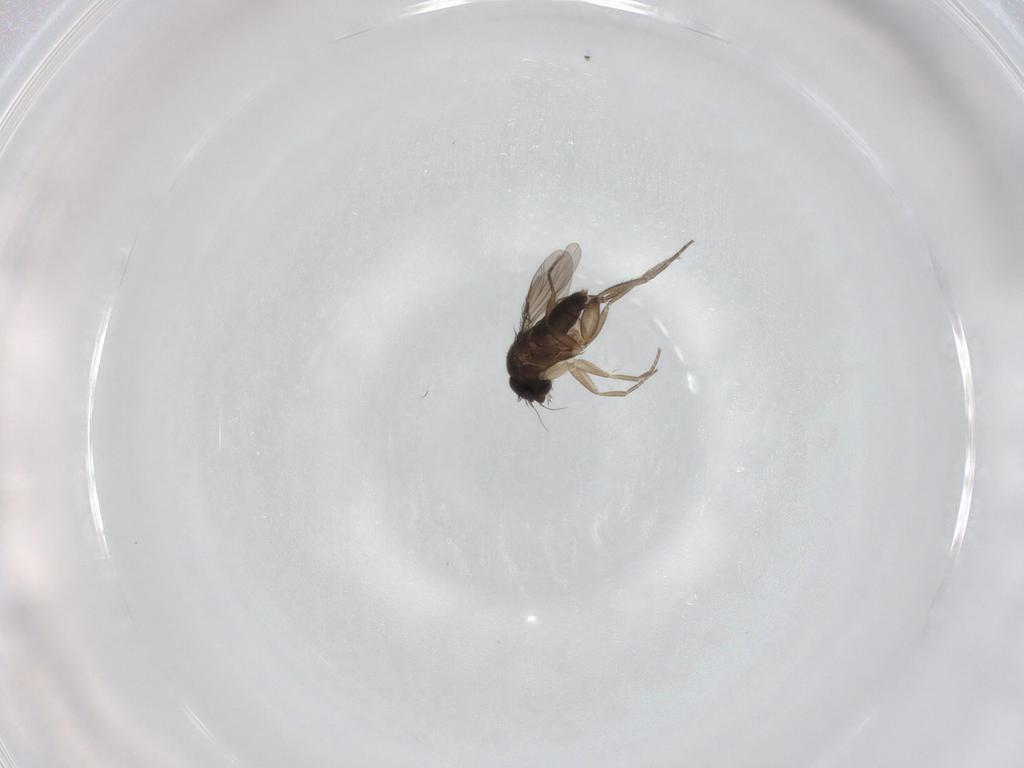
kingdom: Animalia
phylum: Arthropoda
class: Insecta
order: Diptera
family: Phoridae
